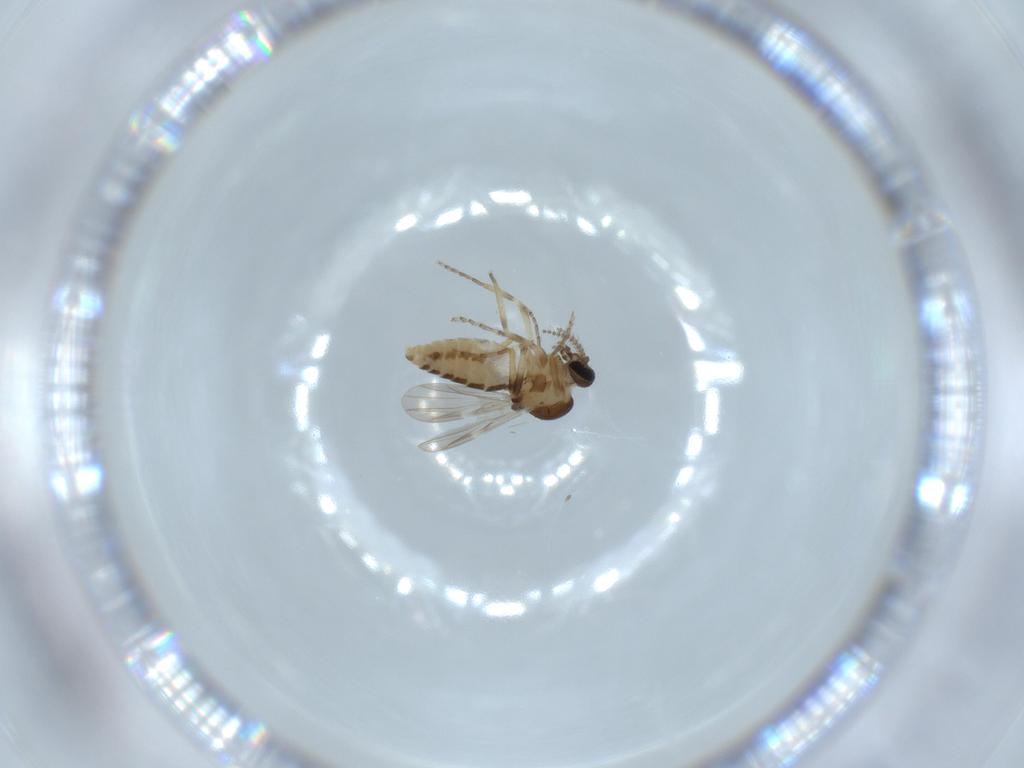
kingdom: Animalia
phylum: Arthropoda
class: Insecta
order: Diptera
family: Ceratopogonidae
